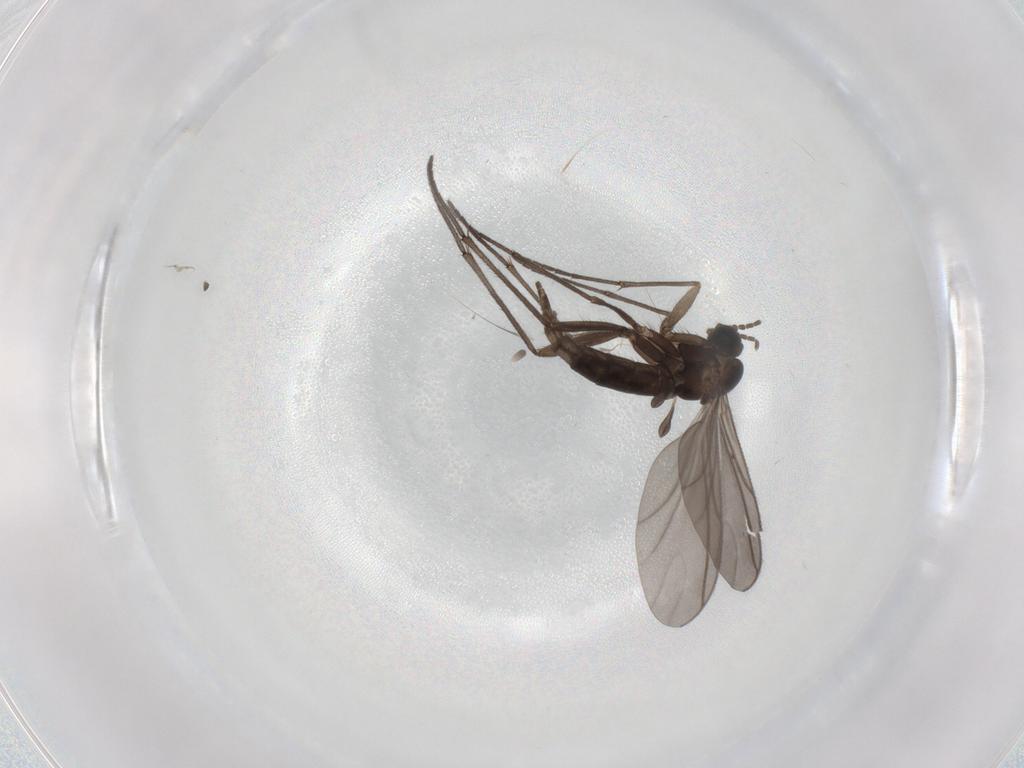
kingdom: Animalia
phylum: Arthropoda
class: Insecta
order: Diptera
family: Sciaridae
